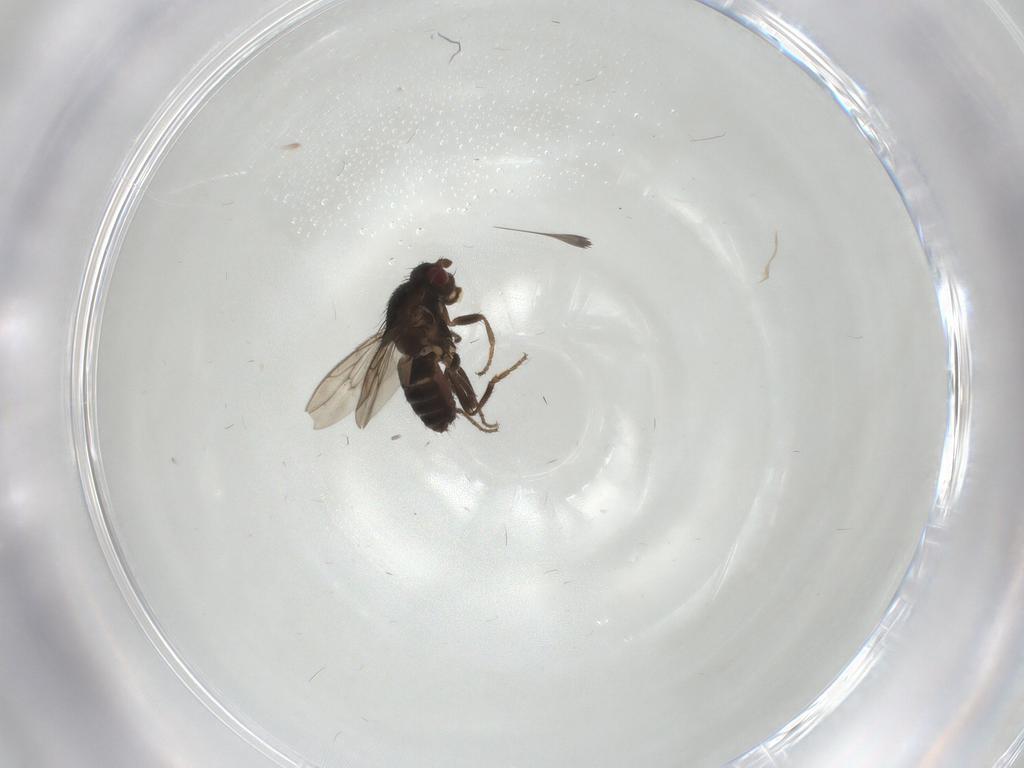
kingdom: Animalia
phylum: Arthropoda
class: Insecta
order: Diptera
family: Sphaeroceridae
